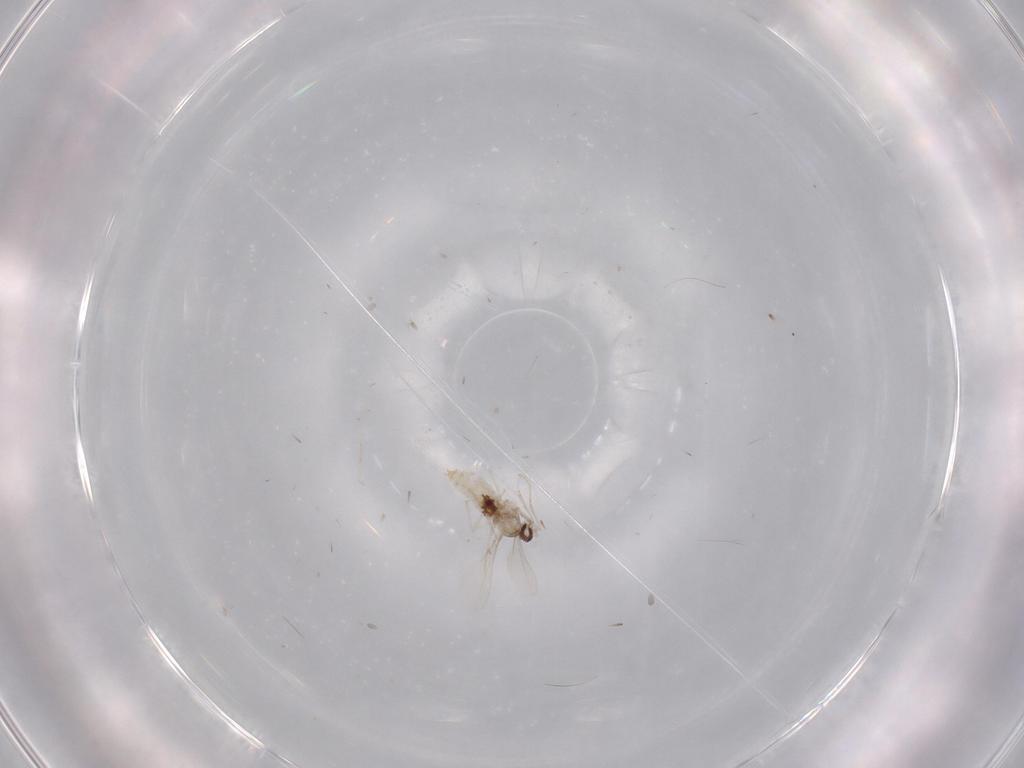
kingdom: Animalia
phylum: Arthropoda
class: Insecta
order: Diptera
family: Cecidomyiidae
